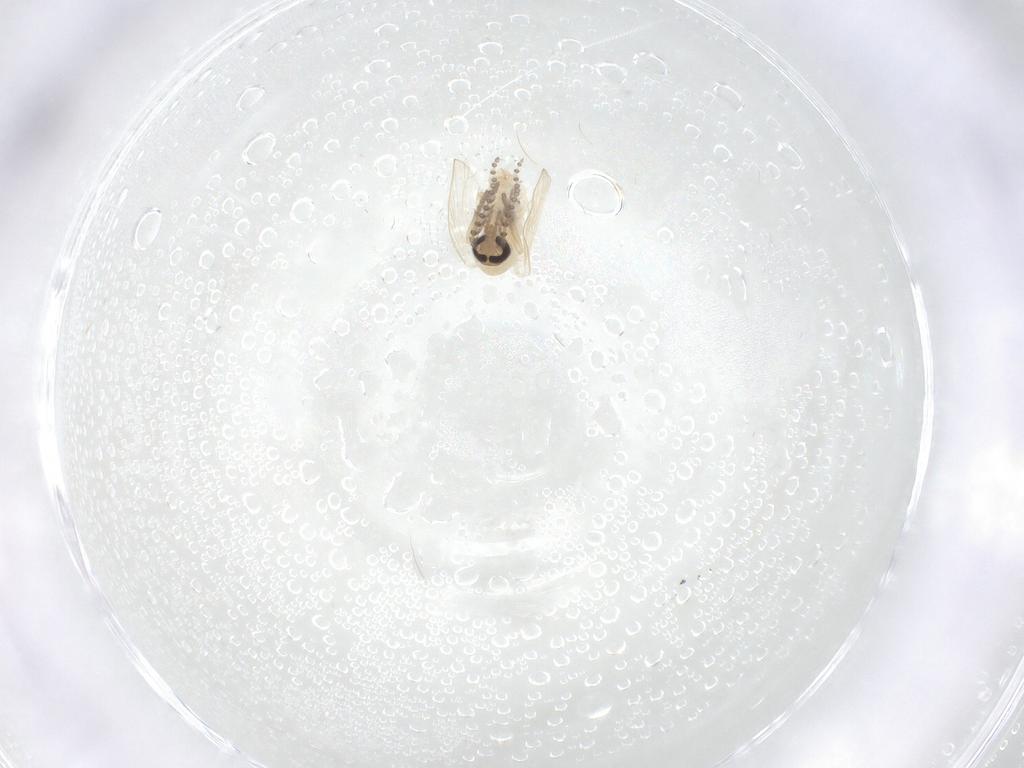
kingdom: Animalia
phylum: Arthropoda
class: Insecta
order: Diptera
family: Psychodidae
